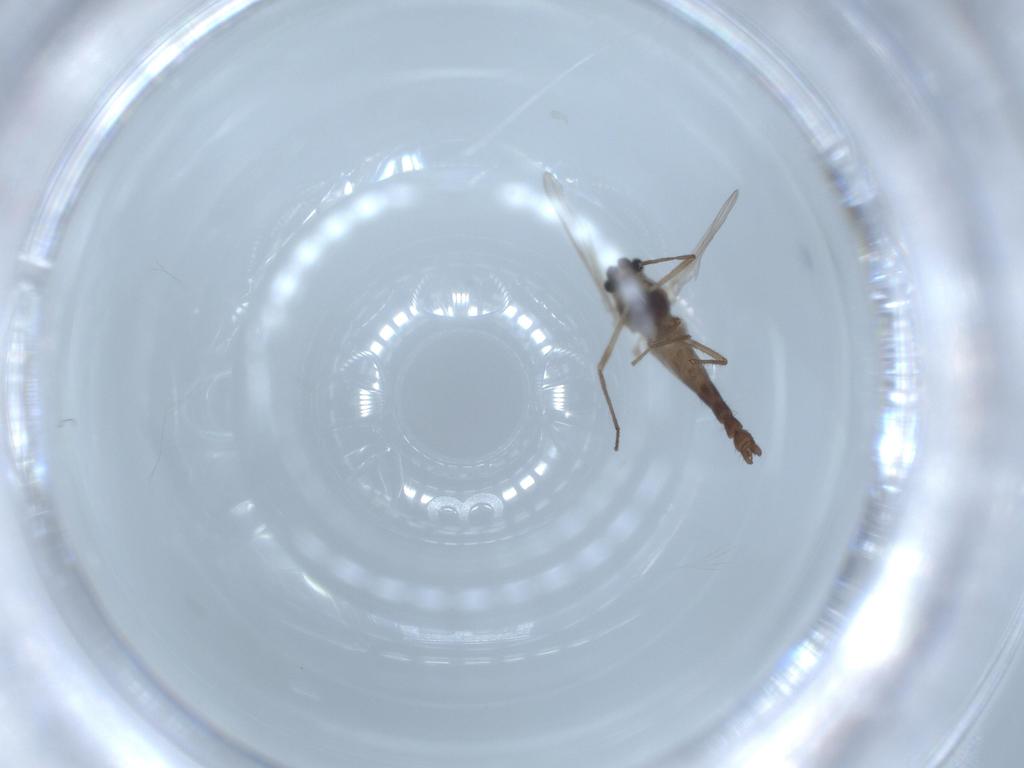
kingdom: Animalia
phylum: Arthropoda
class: Insecta
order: Diptera
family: Chironomidae
